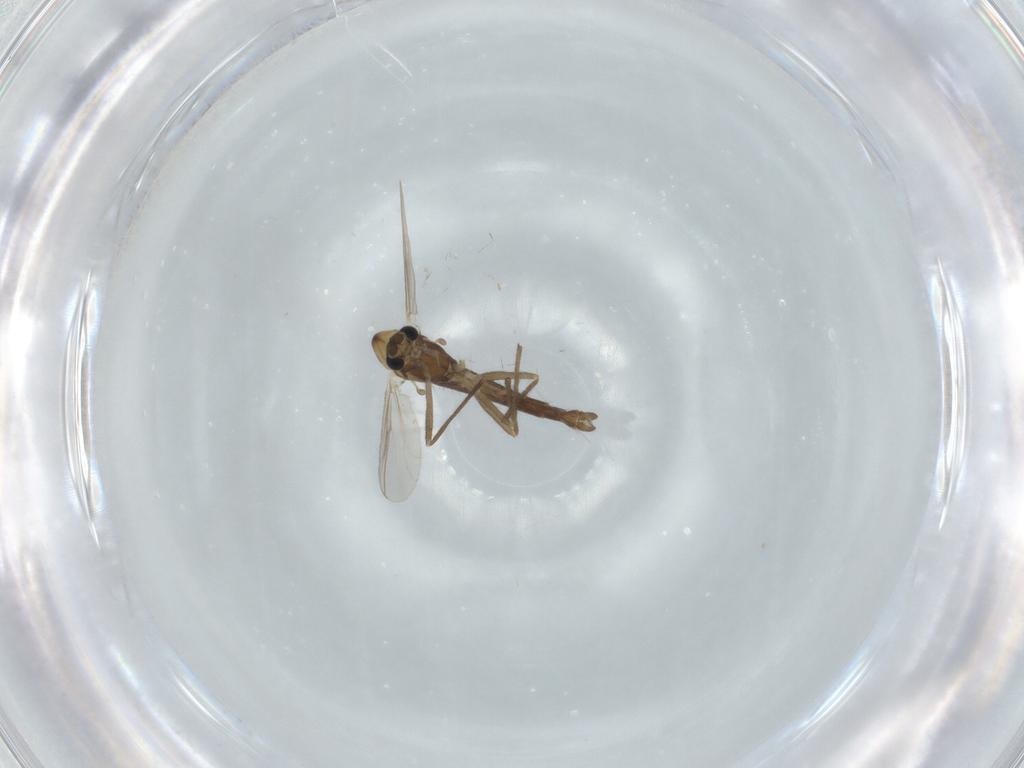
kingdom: Animalia
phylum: Arthropoda
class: Insecta
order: Diptera
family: Chironomidae
